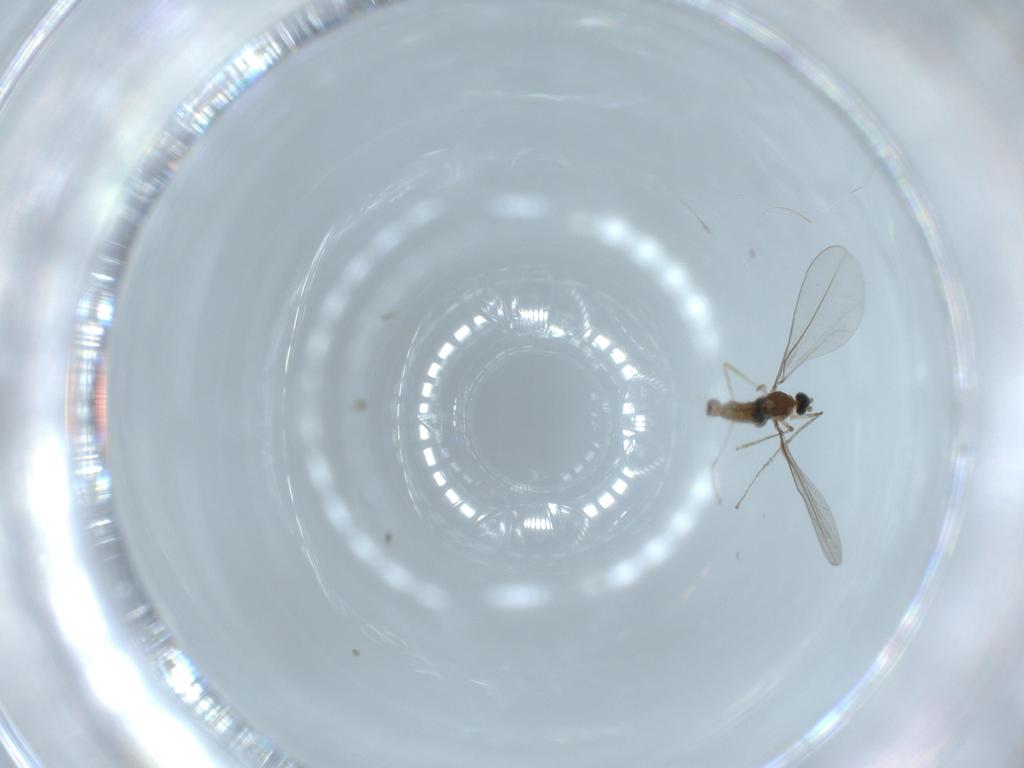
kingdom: Animalia
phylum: Arthropoda
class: Insecta
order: Diptera
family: Cecidomyiidae
